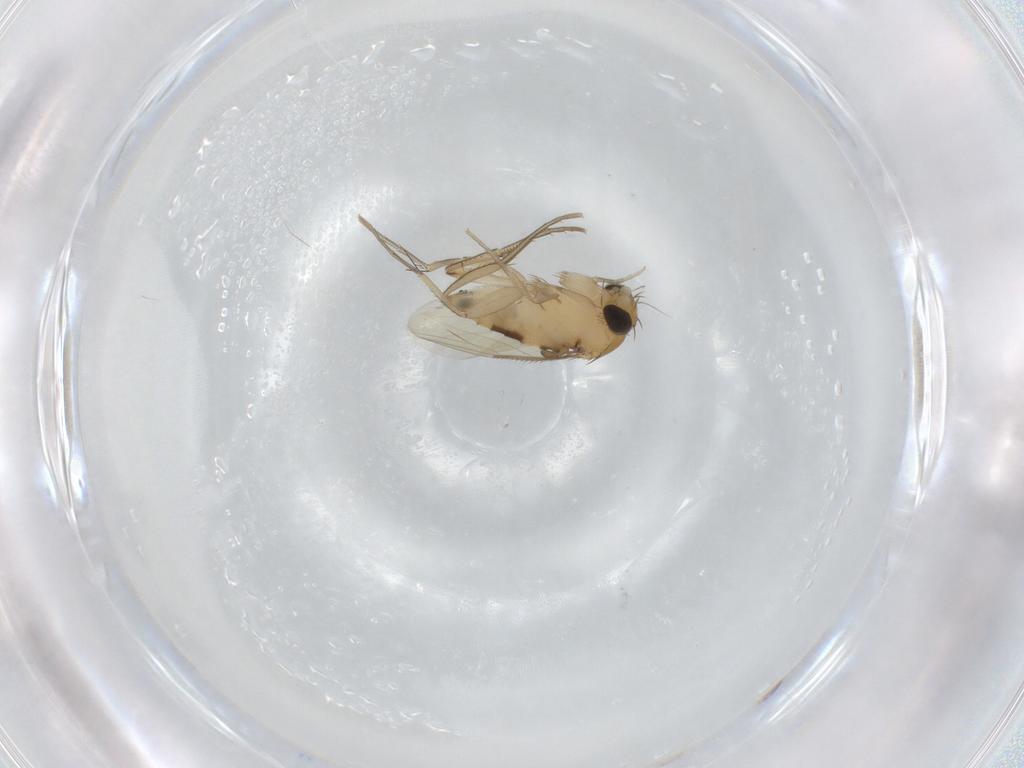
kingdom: Animalia
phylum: Arthropoda
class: Insecta
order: Diptera
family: Phoridae
